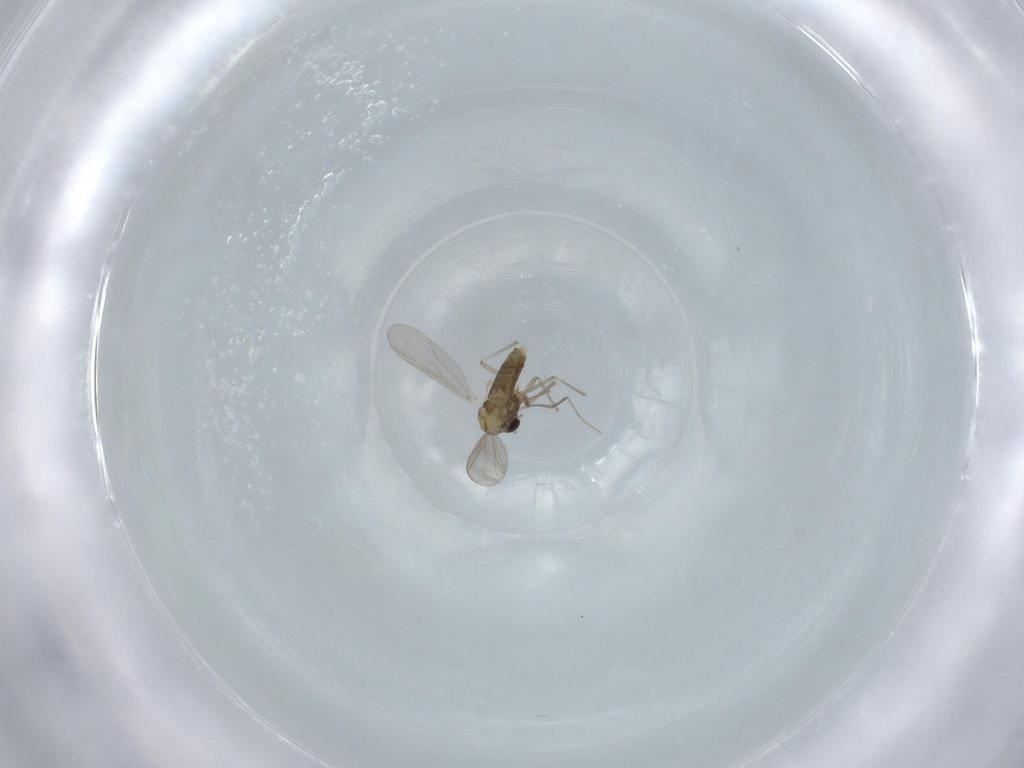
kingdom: Animalia
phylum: Arthropoda
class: Insecta
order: Diptera
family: Chironomidae
